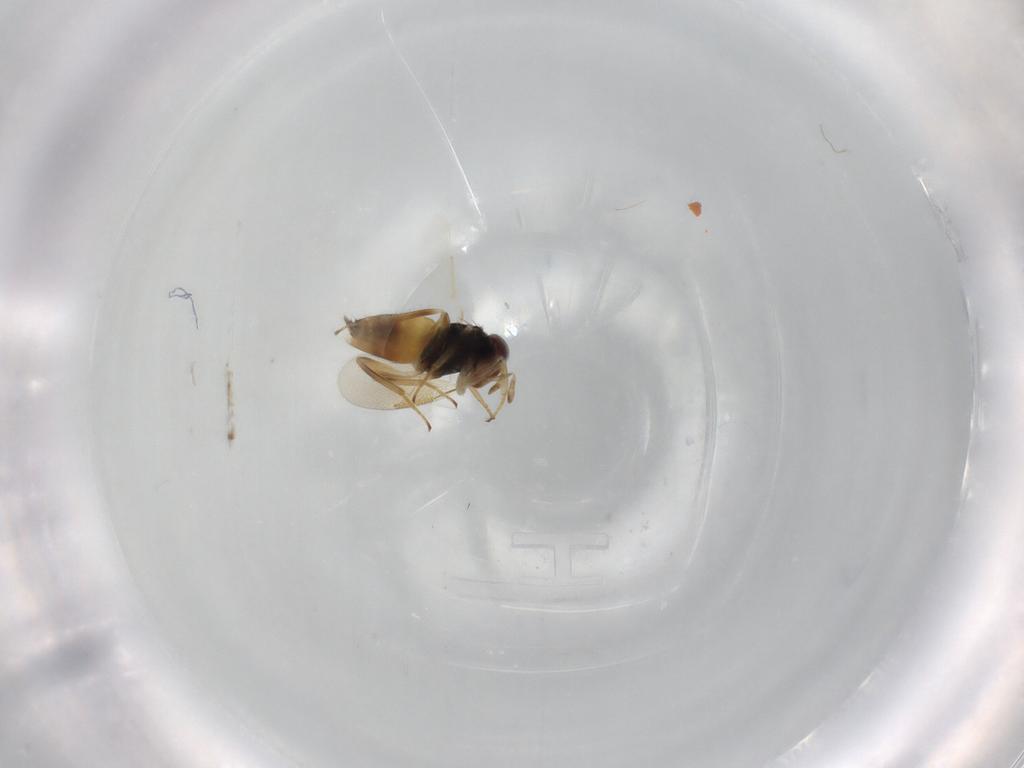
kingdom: Animalia
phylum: Arthropoda
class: Insecta
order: Hymenoptera
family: Aphelinidae
